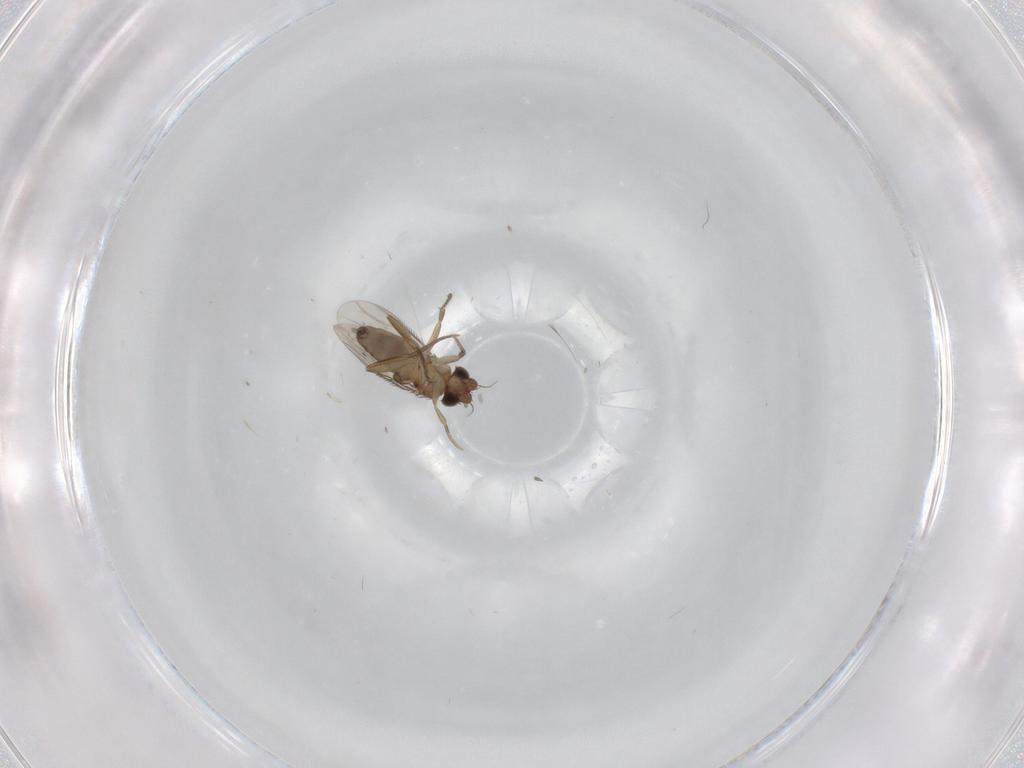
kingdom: Animalia
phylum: Arthropoda
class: Insecta
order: Diptera
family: Phoridae
